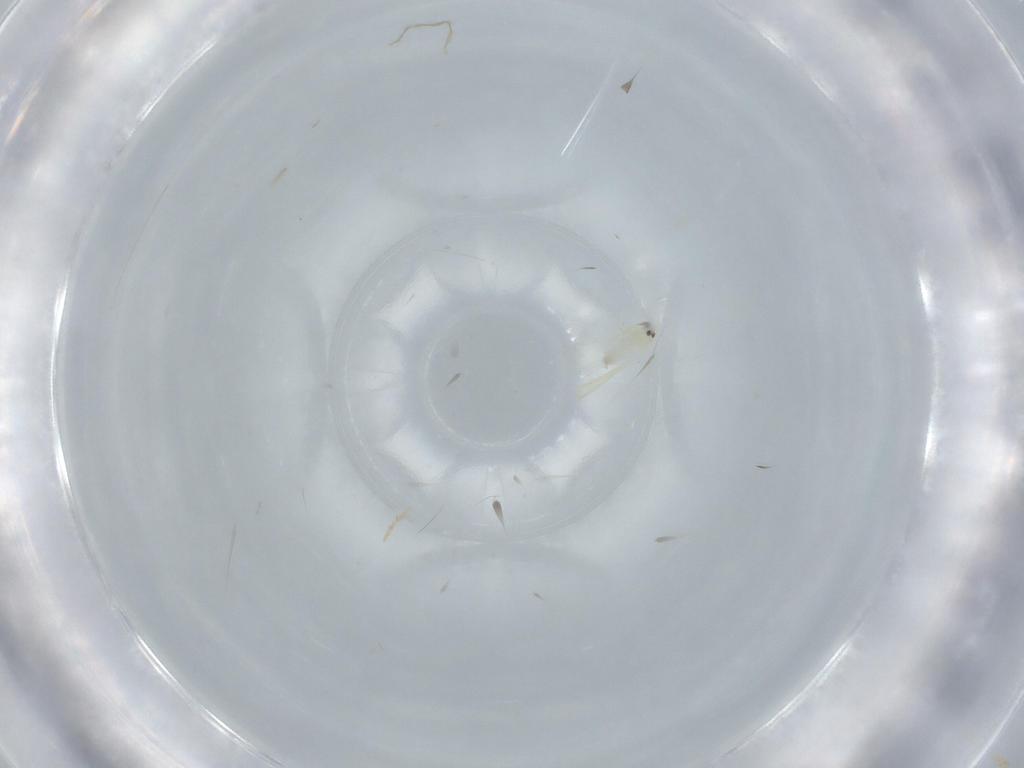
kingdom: Animalia
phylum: Arthropoda
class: Insecta
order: Hemiptera
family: Aleyrodidae
